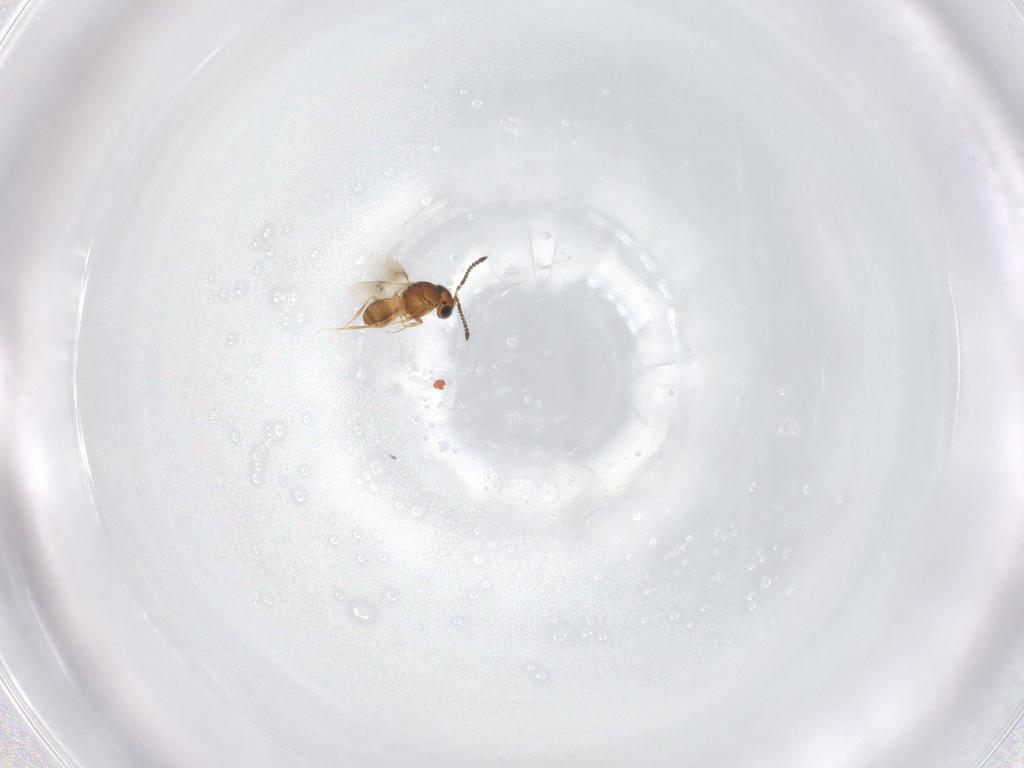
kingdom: Animalia
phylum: Arthropoda
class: Insecta
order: Hymenoptera
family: Scelionidae
